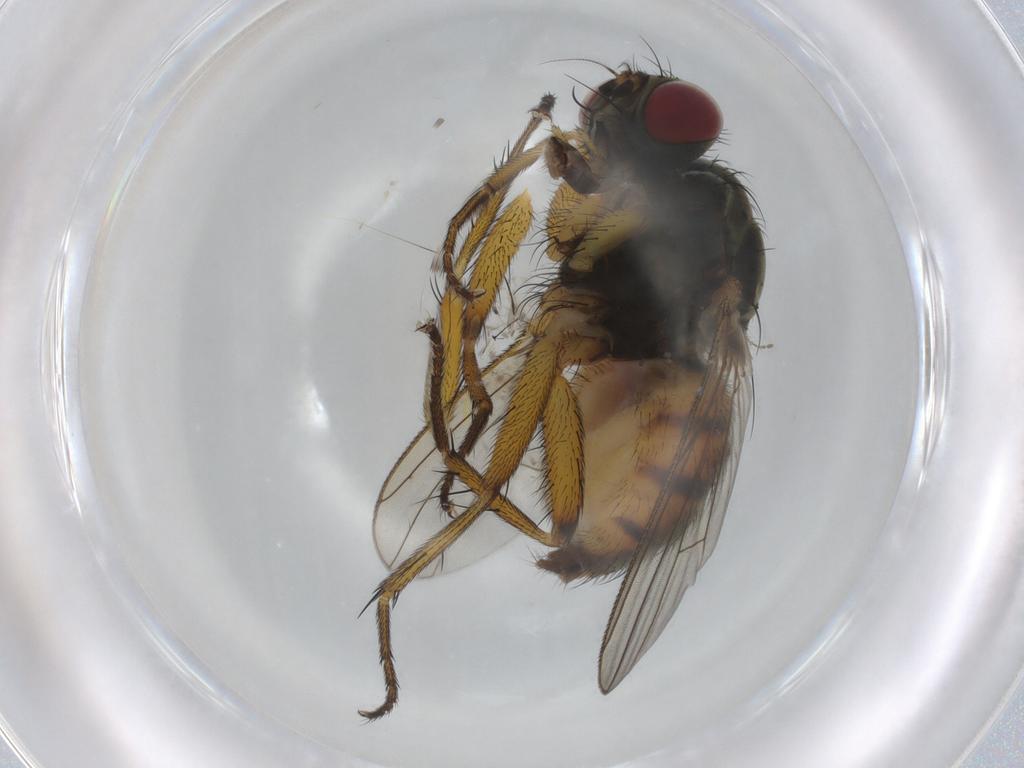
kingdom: Animalia
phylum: Arthropoda
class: Insecta
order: Diptera
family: Muscidae
